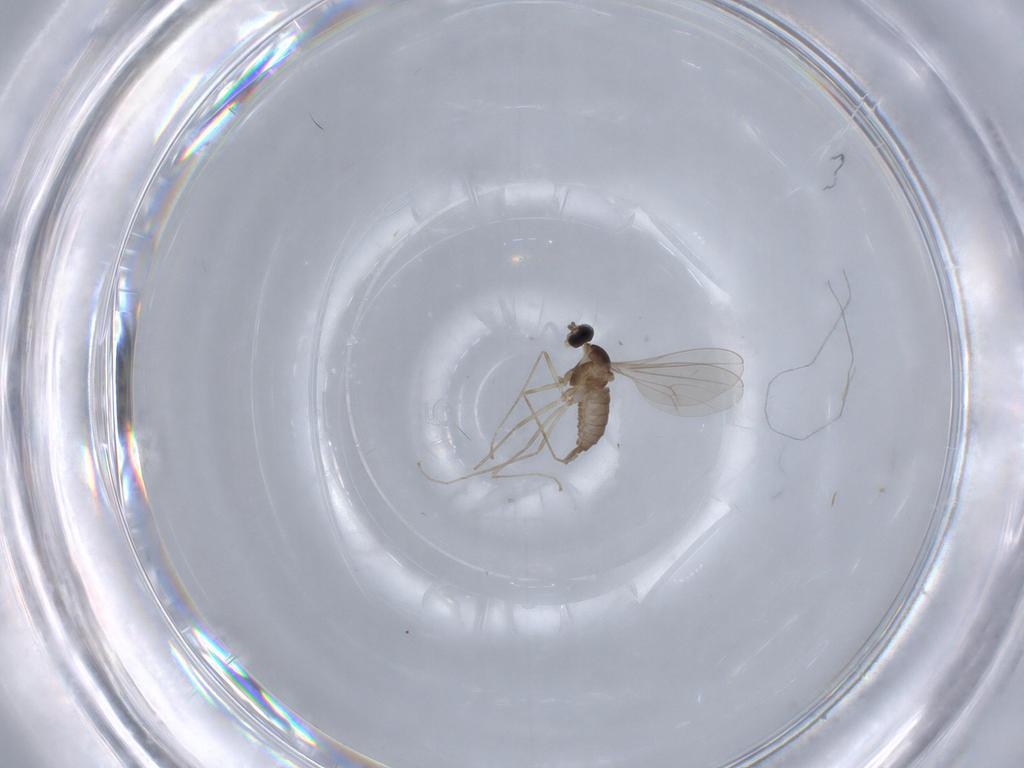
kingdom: Animalia
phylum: Arthropoda
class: Insecta
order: Diptera
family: Cecidomyiidae
